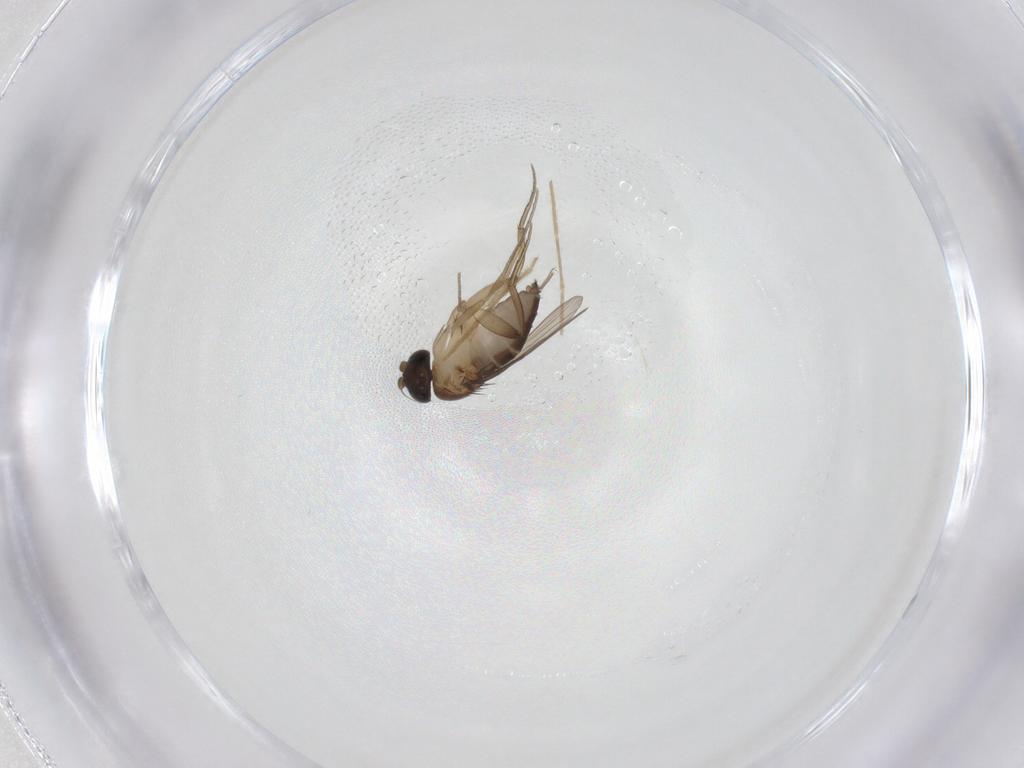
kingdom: Animalia
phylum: Arthropoda
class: Insecta
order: Diptera
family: Phoridae
